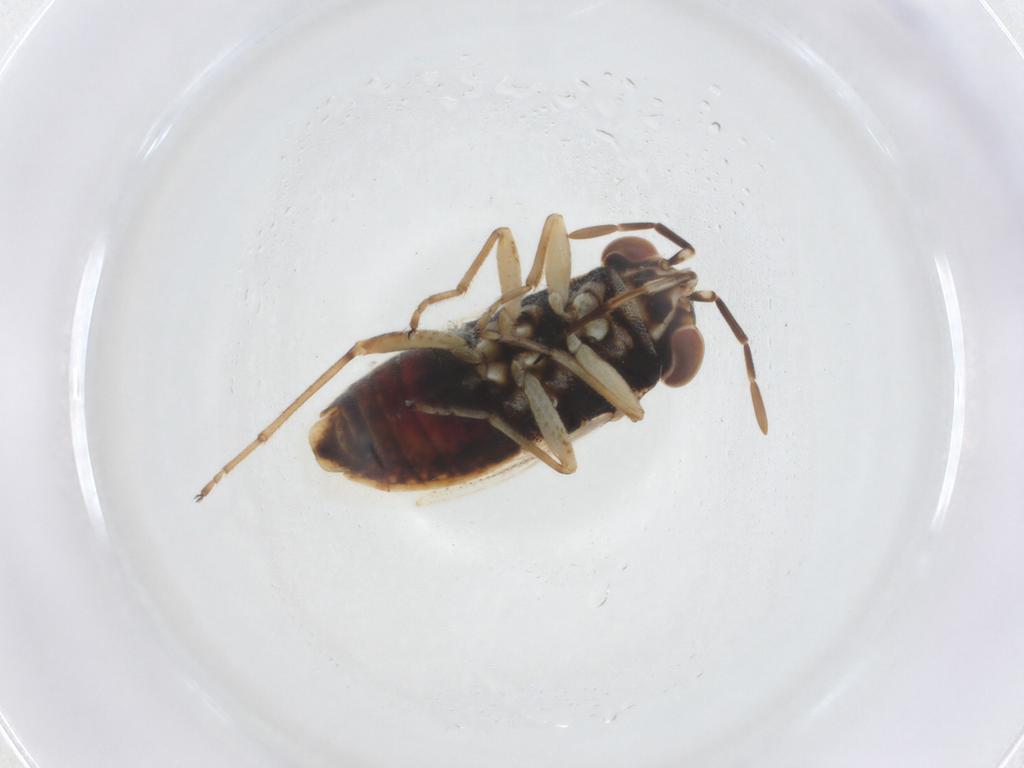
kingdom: Animalia
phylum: Arthropoda
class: Insecta
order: Hemiptera
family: Geocoridae
